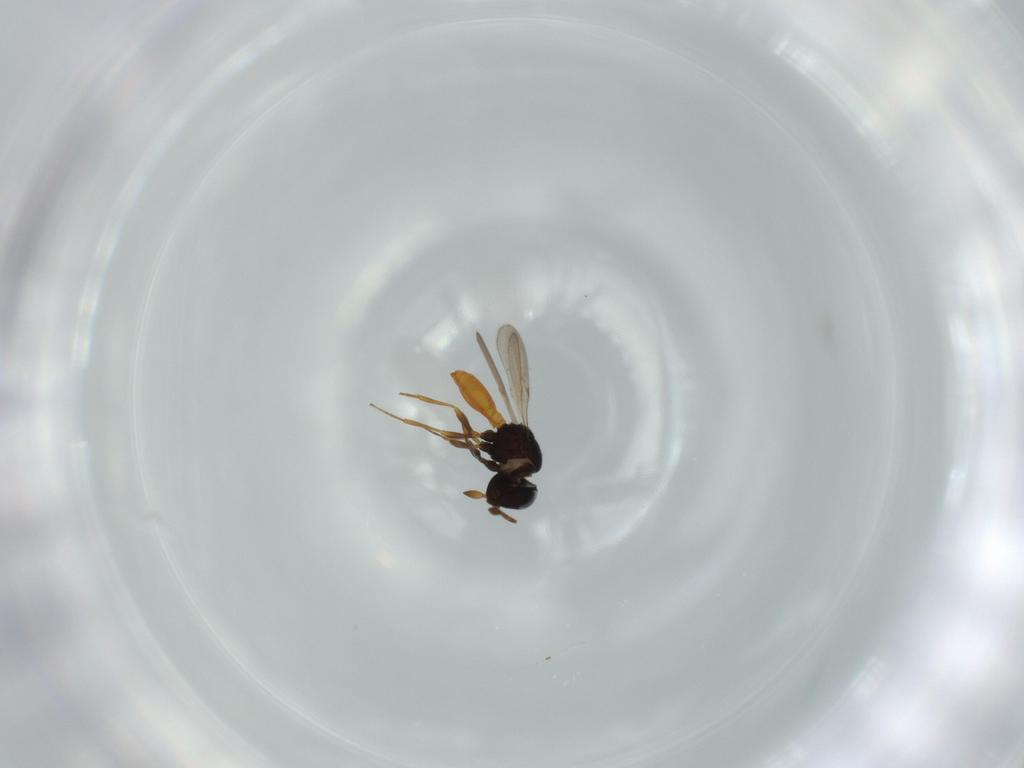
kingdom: Animalia
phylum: Arthropoda
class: Insecta
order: Hymenoptera
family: Scelionidae
